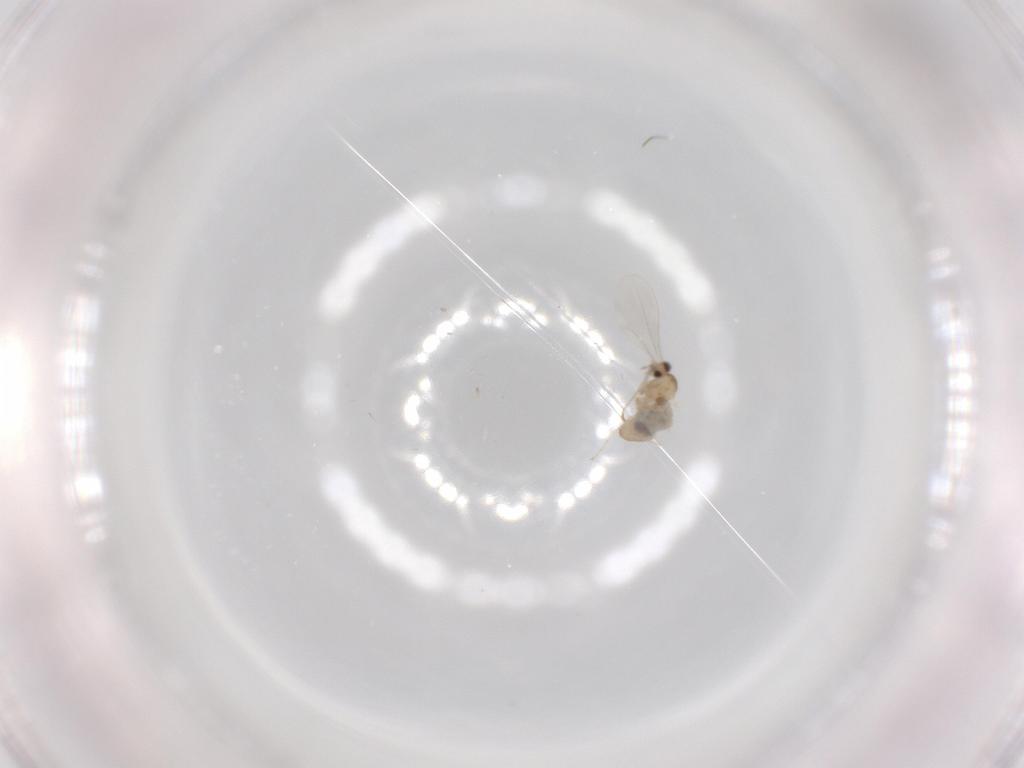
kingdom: Animalia
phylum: Arthropoda
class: Insecta
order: Diptera
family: Cecidomyiidae
